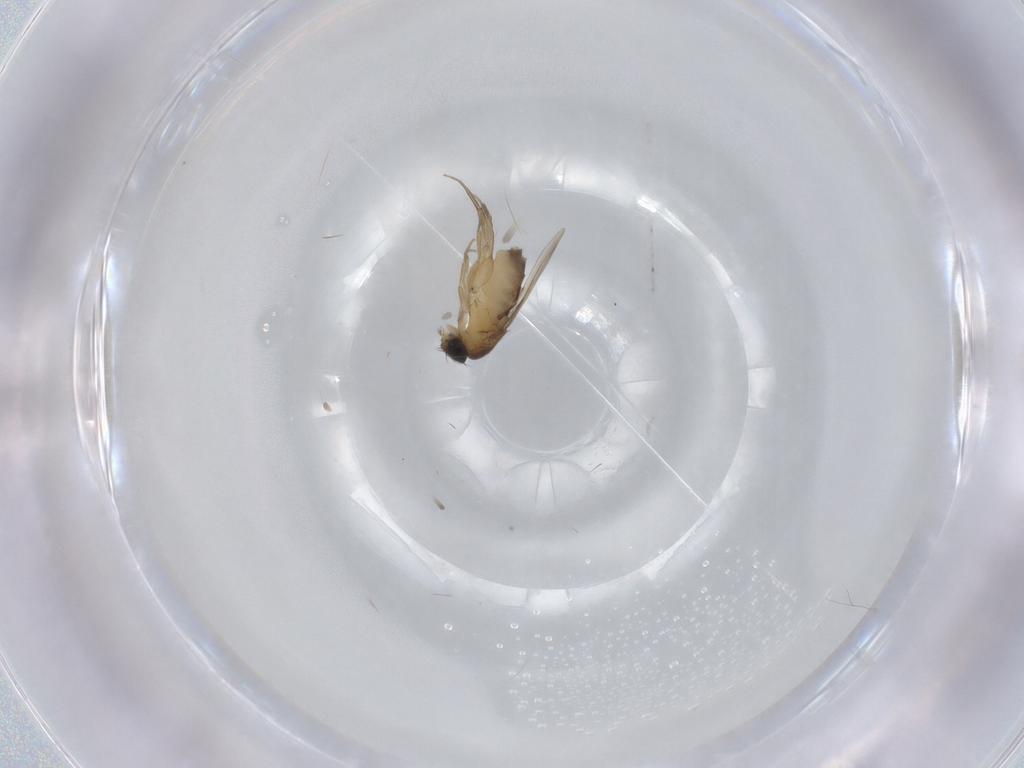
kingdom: Animalia
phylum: Arthropoda
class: Insecta
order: Diptera
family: Phoridae
